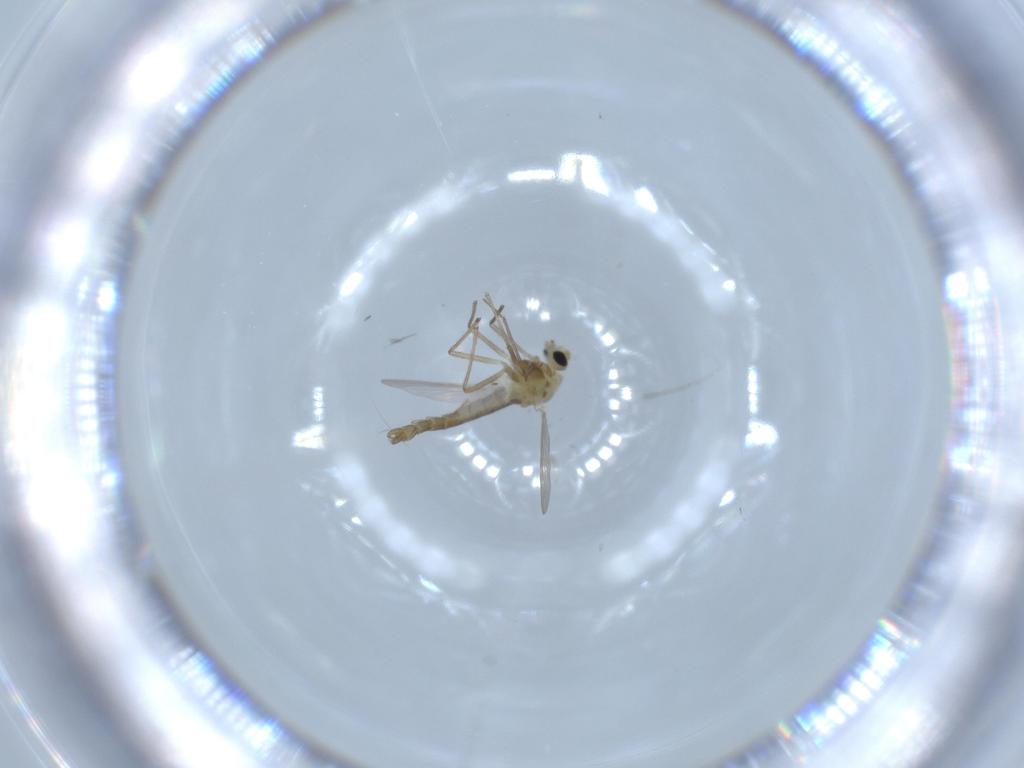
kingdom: Animalia
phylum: Arthropoda
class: Insecta
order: Diptera
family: Chironomidae
